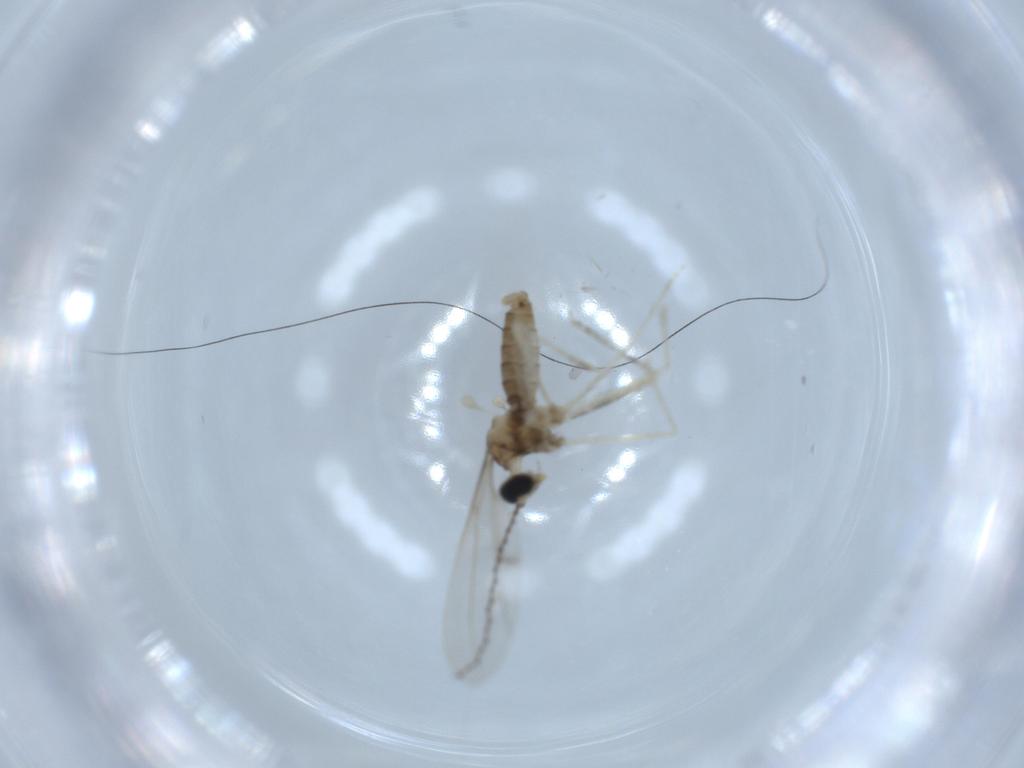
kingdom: Animalia
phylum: Arthropoda
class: Insecta
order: Diptera
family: Cecidomyiidae
